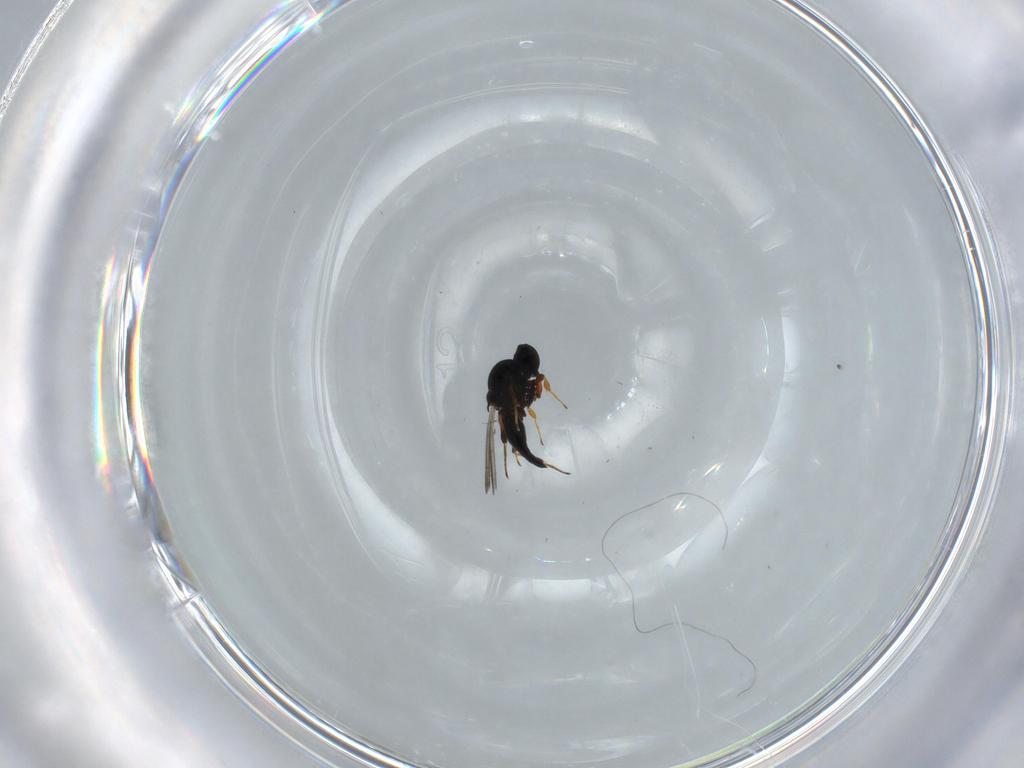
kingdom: Animalia
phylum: Arthropoda
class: Insecta
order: Hymenoptera
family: Platygastridae
